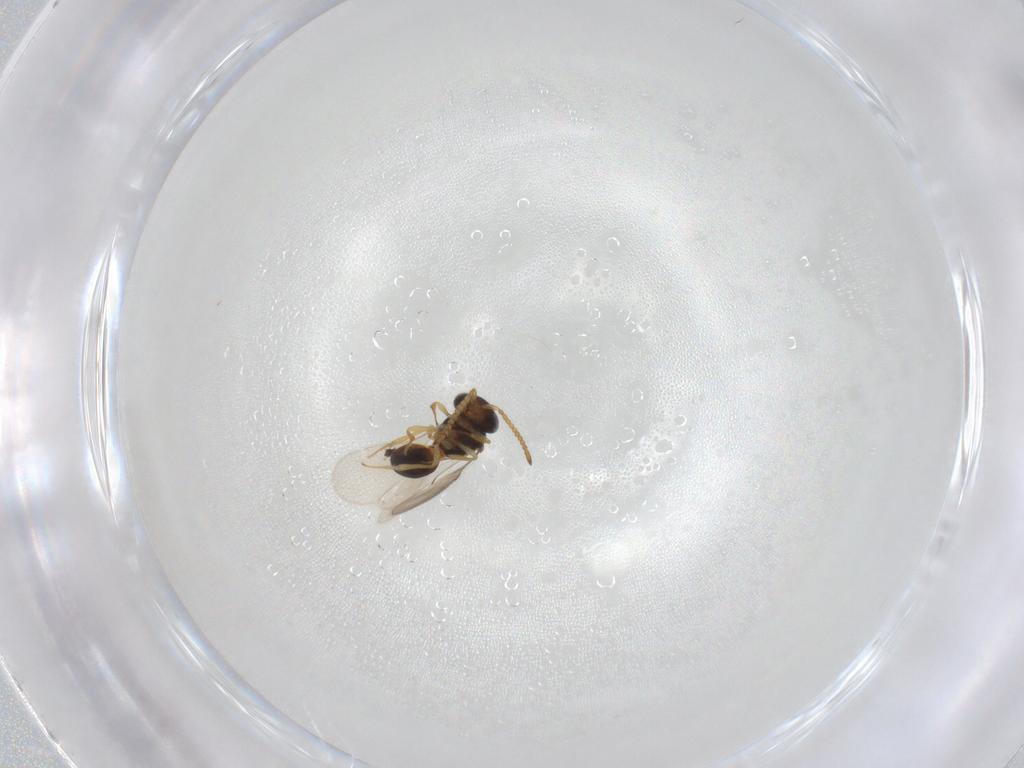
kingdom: Animalia
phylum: Arthropoda
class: Insecta
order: Hymenoptera
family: Scelionidae
